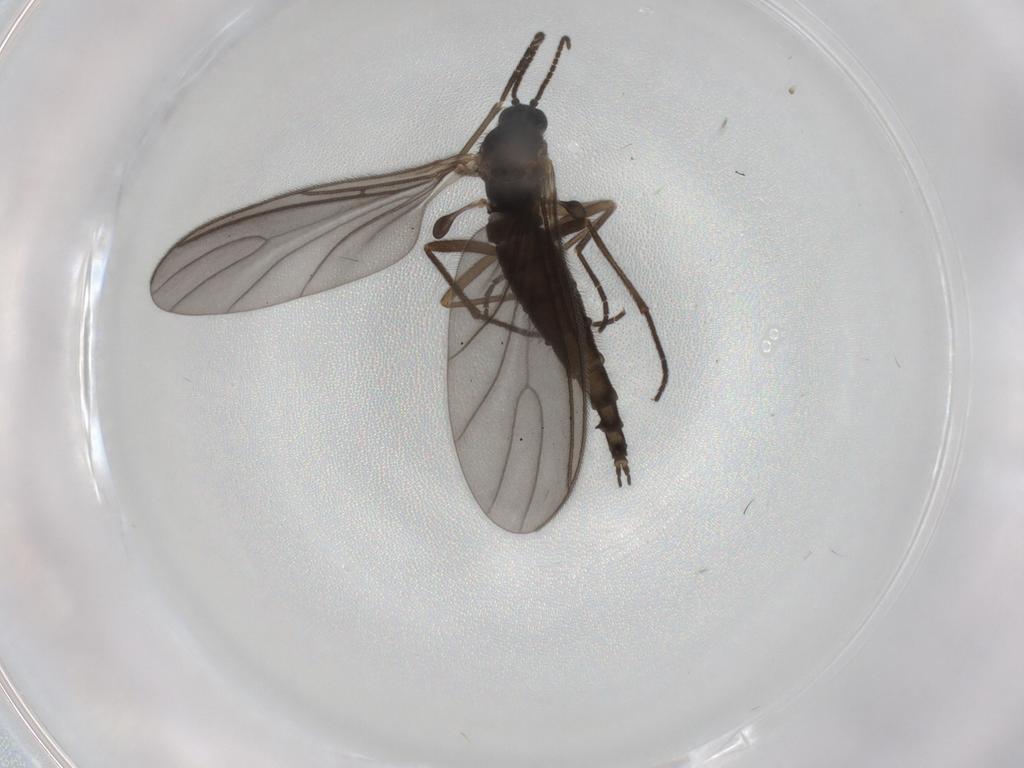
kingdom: Animalia
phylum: Arthropoda
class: Insecta
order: Diptera
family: Sciaridae
